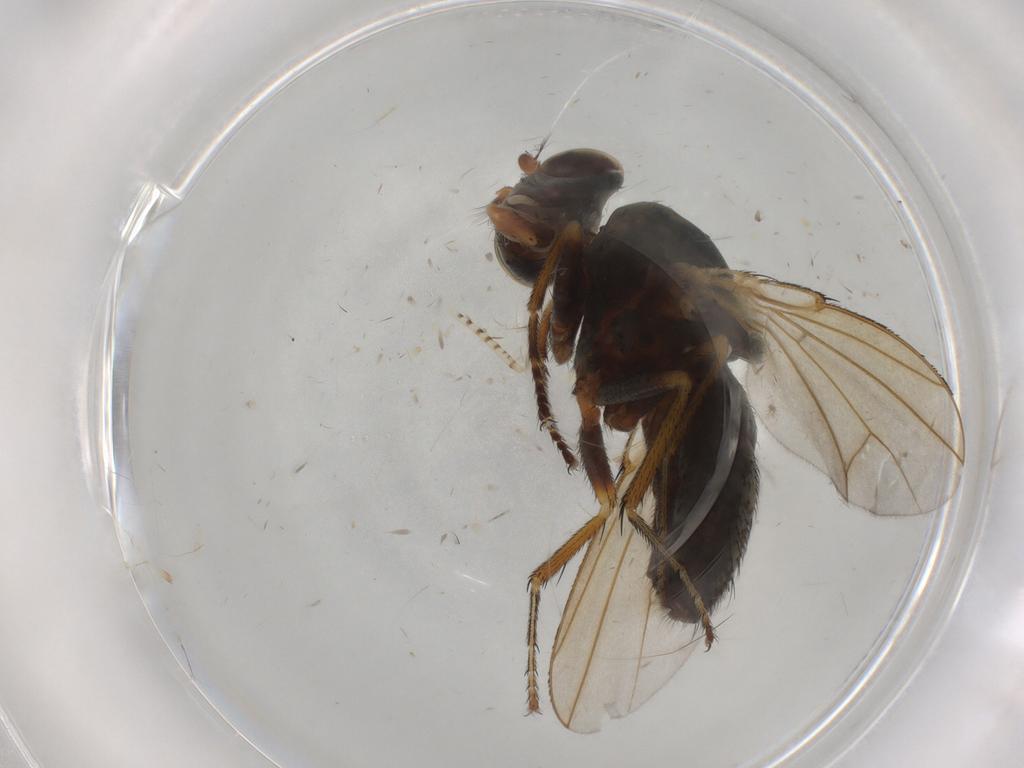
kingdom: Animalia
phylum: Arthropoda
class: Insecta
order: Diptera
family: Ephydridae
